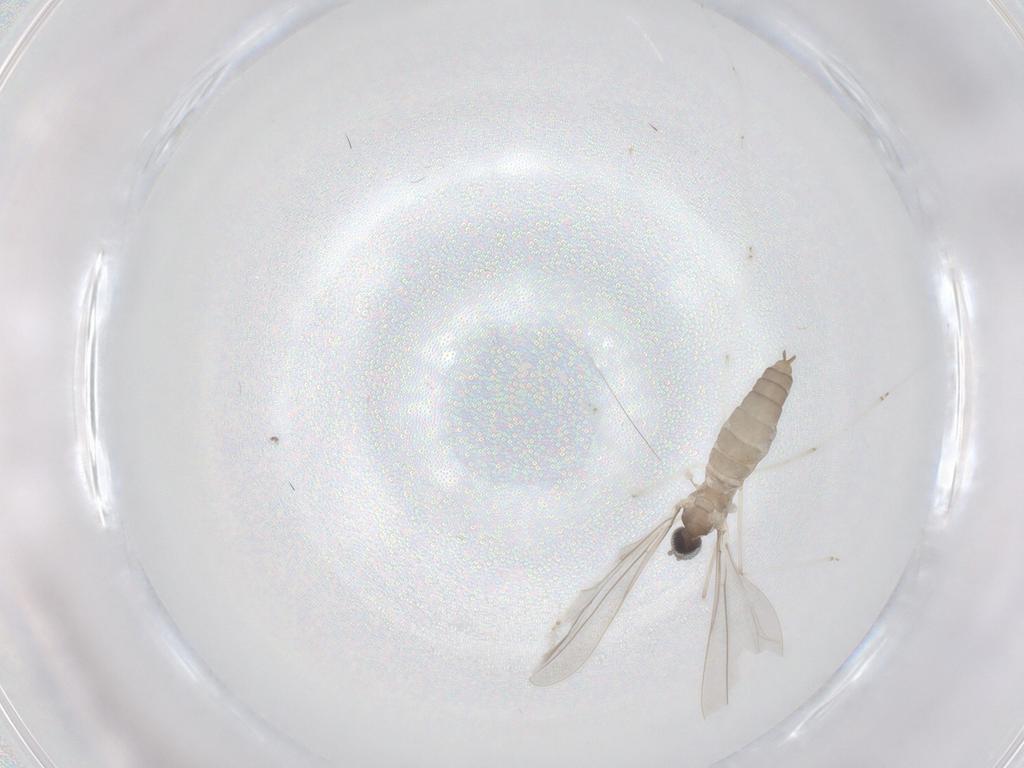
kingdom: Animalia
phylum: Arthropoda
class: Insecta
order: Diptera
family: Cecidomyiidae
